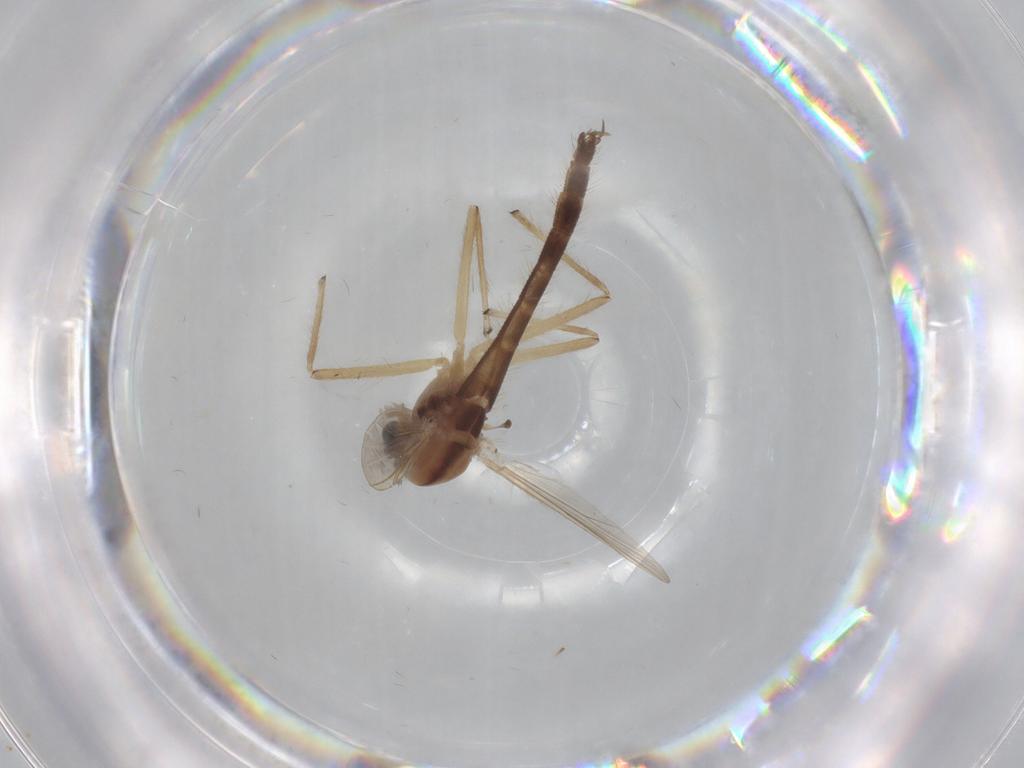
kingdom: Animalia
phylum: Arthropoda
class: Insecta
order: Diptera
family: Chironomidae
